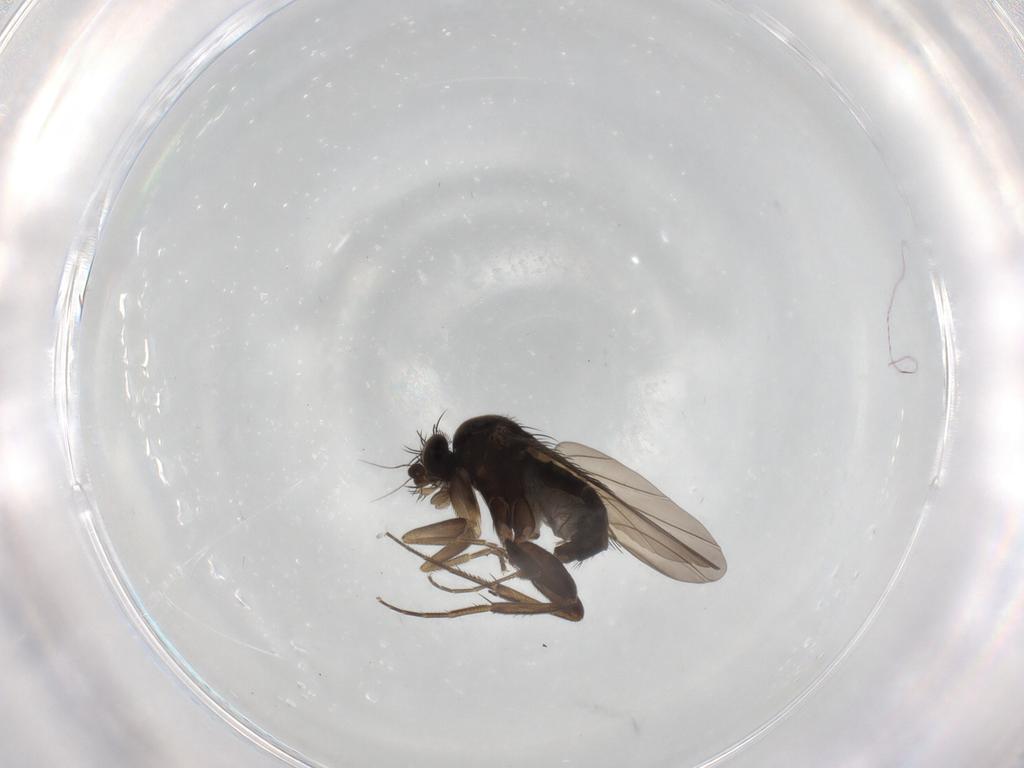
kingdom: Animalia
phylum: Arthropoda
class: Insecta
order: Diptera
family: Phoridae
